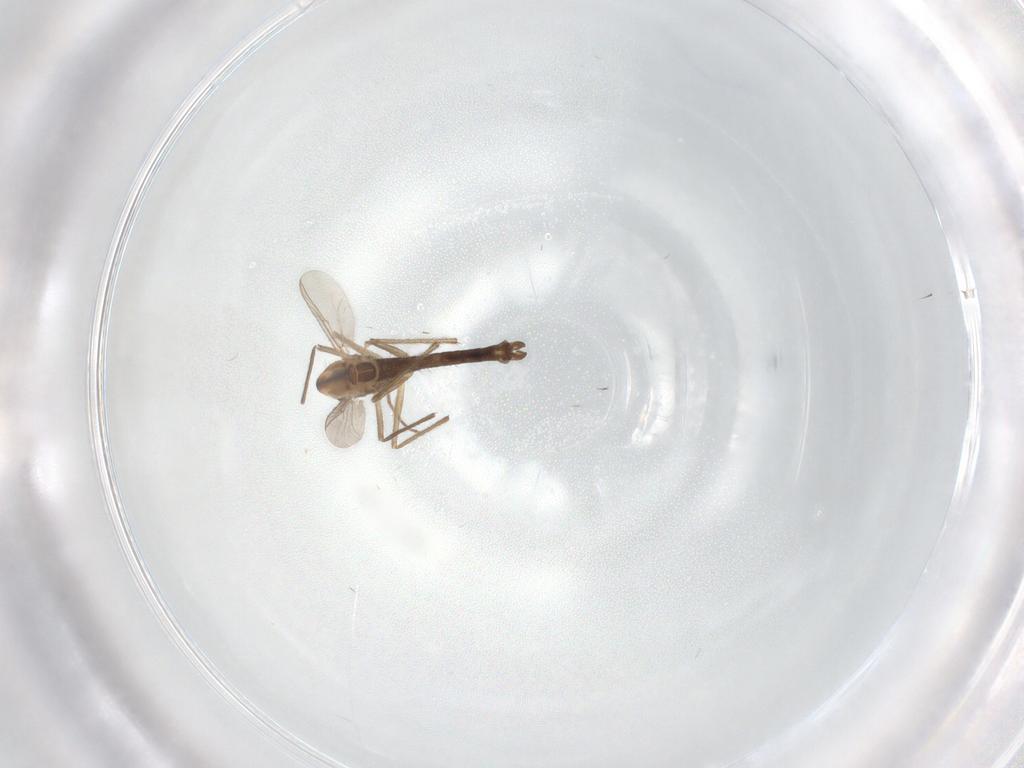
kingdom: Animalia
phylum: Arthropoda
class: Insecta
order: Diptera
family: Chironomidae
